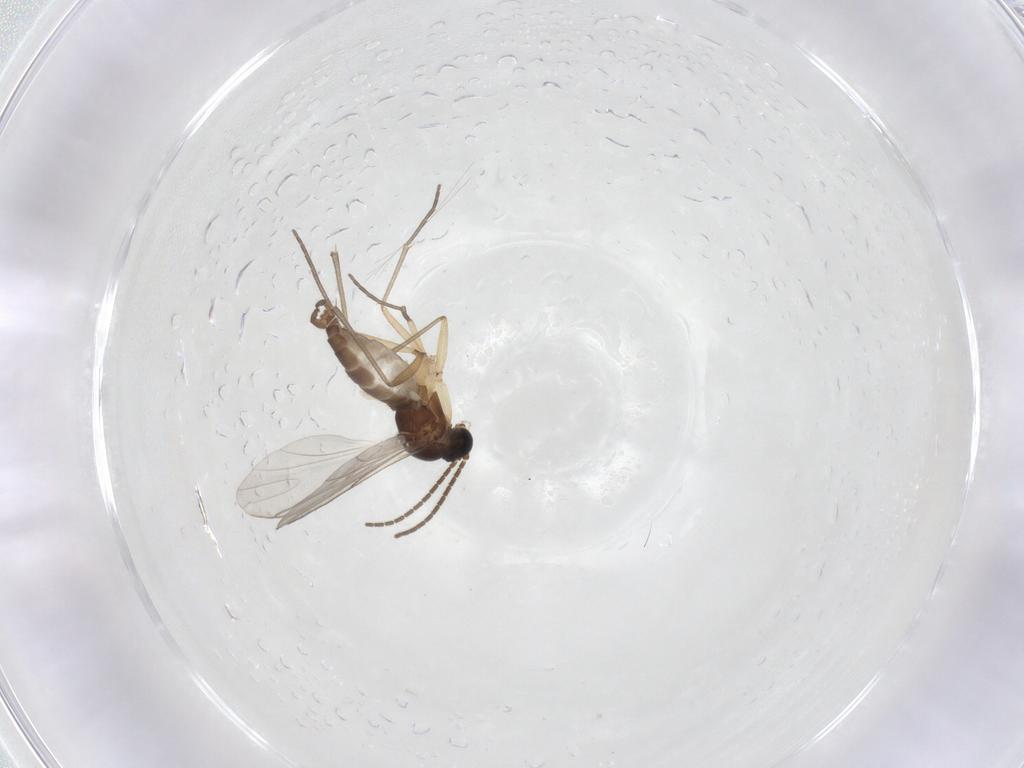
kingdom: Animalia
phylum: Arthropoda
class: Insecta
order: Diptera
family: Sciaridae
